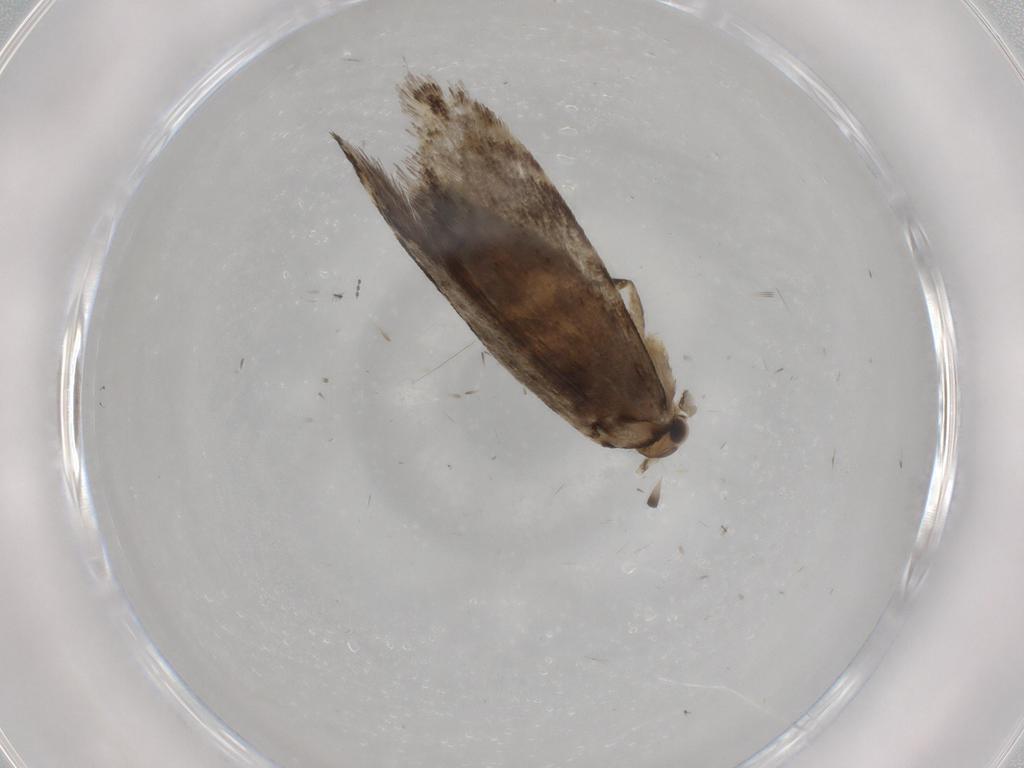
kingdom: Animalia
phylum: Arthropoda
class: Insecta
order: Lepidoptera
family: Tineidae
